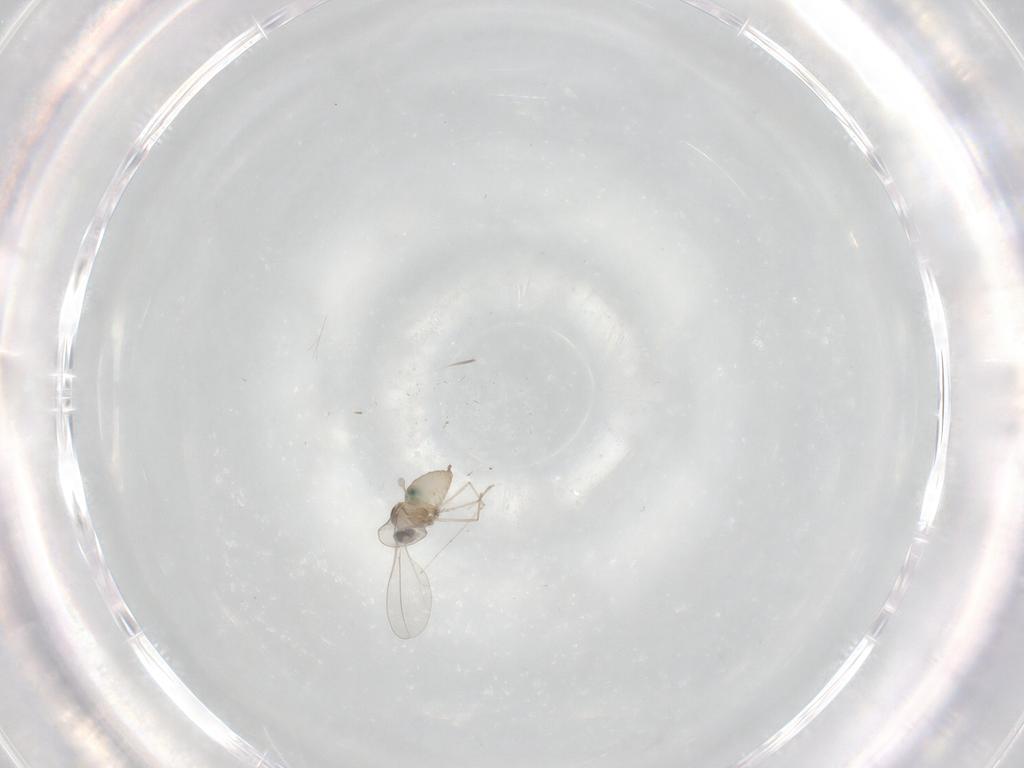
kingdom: Animalia
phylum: Arthropoda
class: Insecta
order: Diptera
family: Cecidomyiidae
